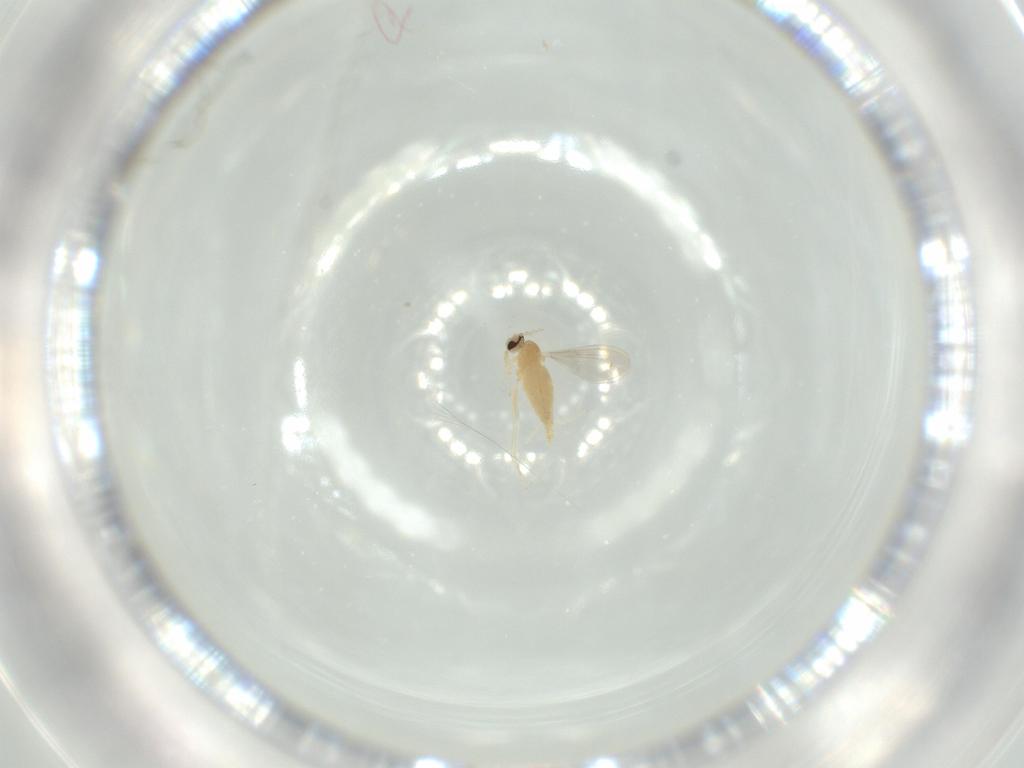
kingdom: Animalia
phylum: Arthropoda
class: Insecta
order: Diptera
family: Cecidomyiidae
